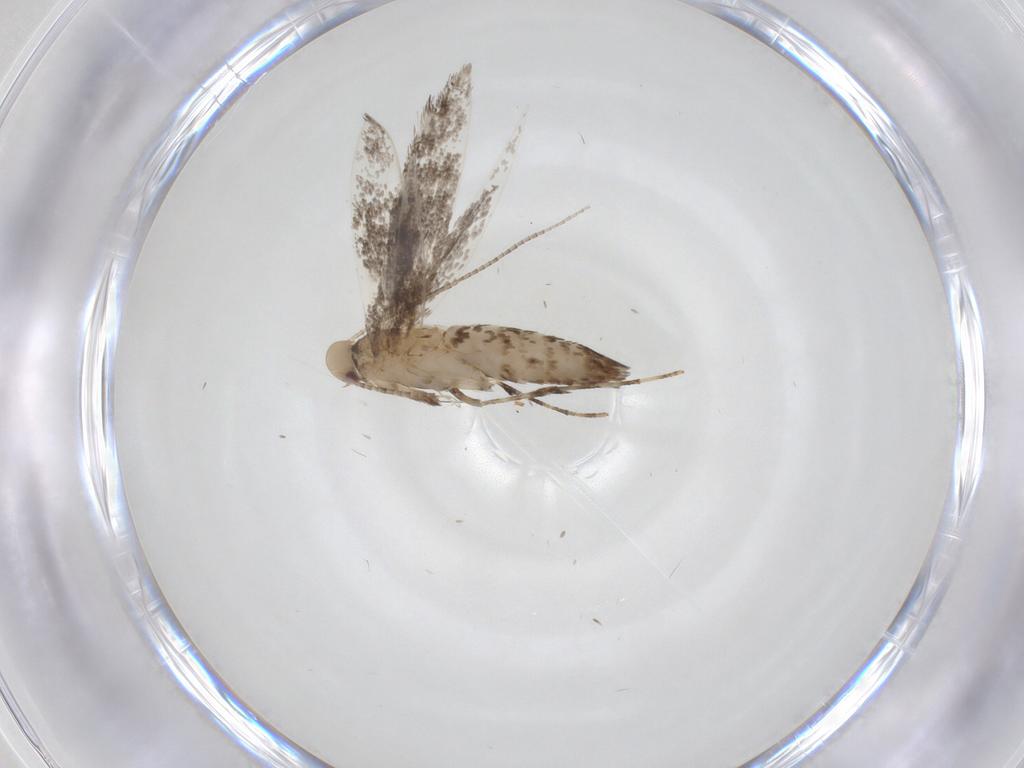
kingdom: Animalia
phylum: Arthropoda
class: Insecta
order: Lepidoptera
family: Gracillariidae
